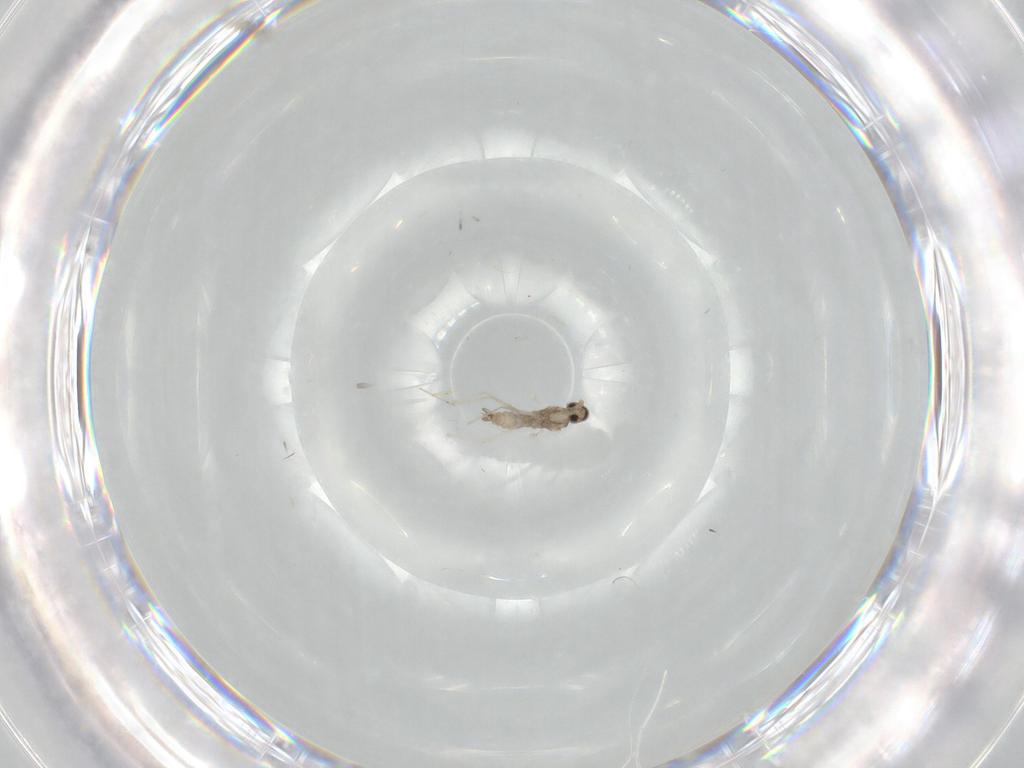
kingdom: Animalia
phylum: Arthropoda
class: Insecta
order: Diptera
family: Cecidomyiidae
